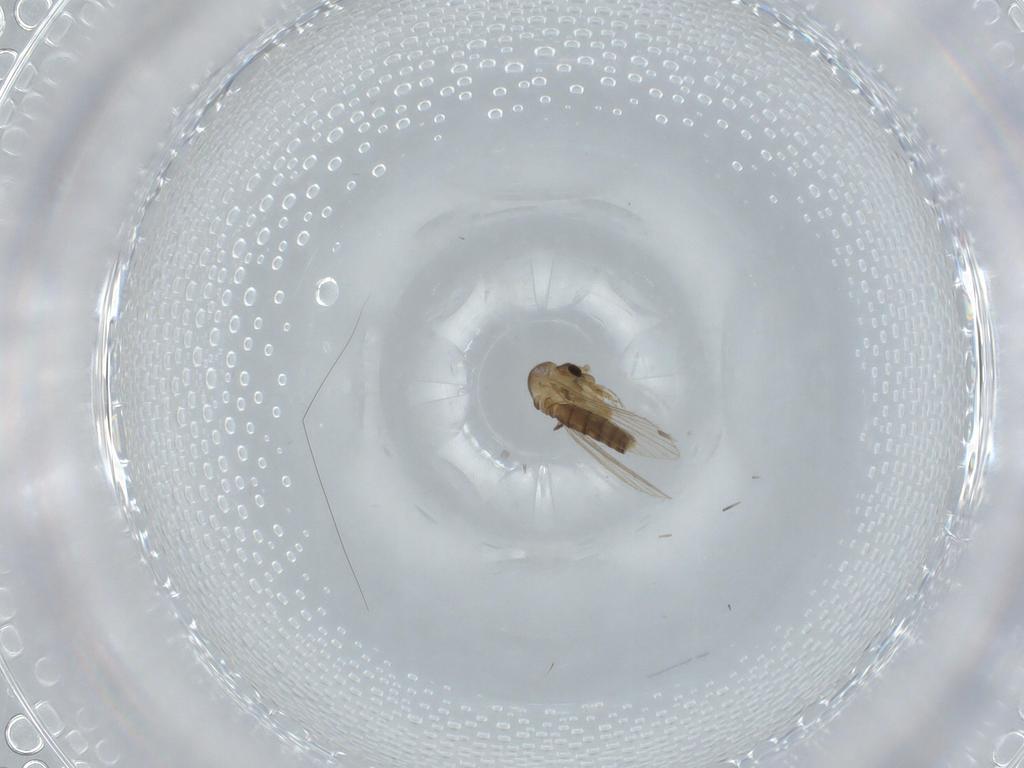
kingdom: Animalia
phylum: Arthropoda
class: Insecta
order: Diptera
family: Psychodidae
